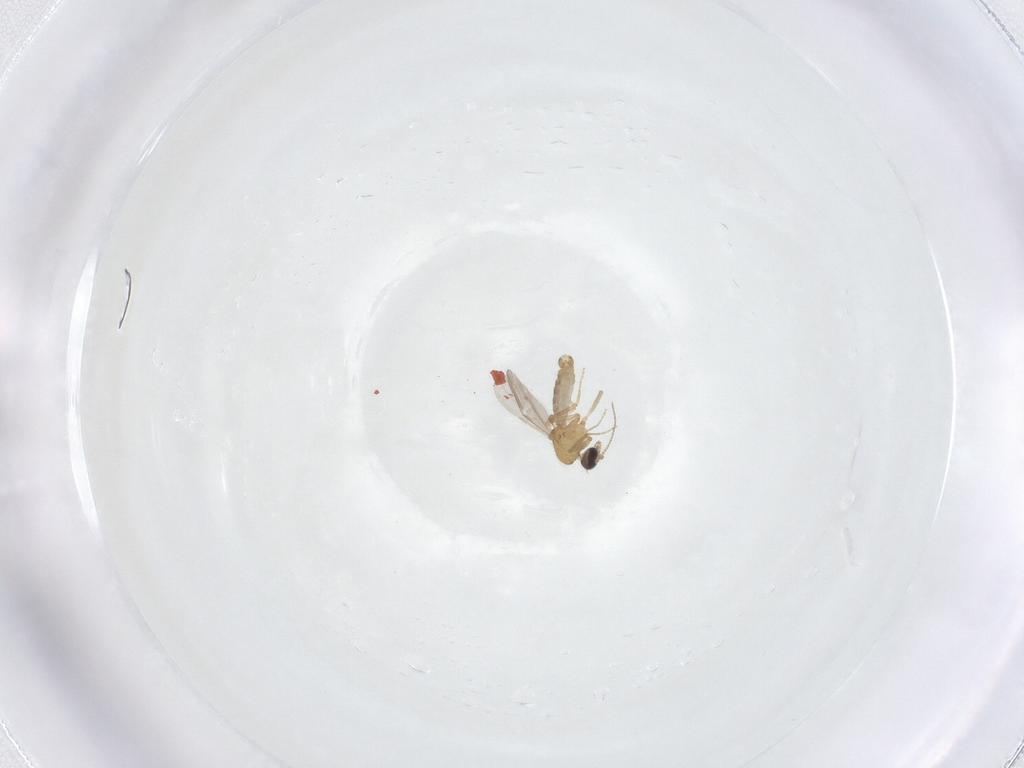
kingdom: Animalia
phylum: Arthropoda
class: Insecta
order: Diptera
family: Ceratopogonidae
